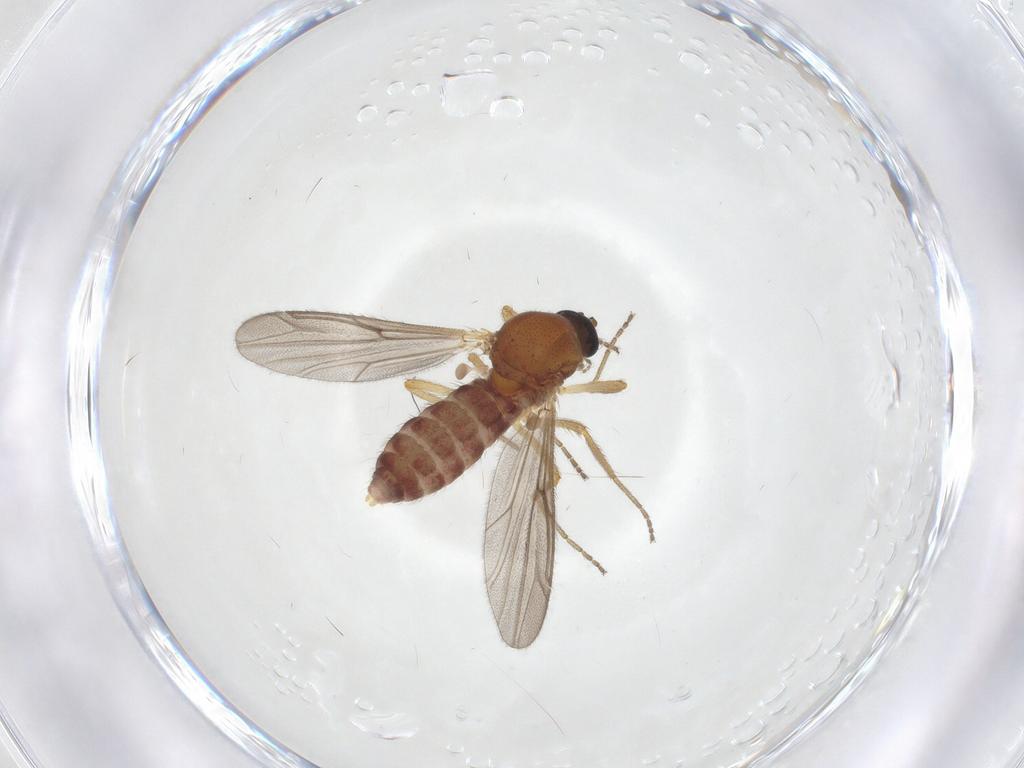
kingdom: Animalia
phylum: Arthropoda
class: Insecta
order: Diptera
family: Ceratopogonidae
